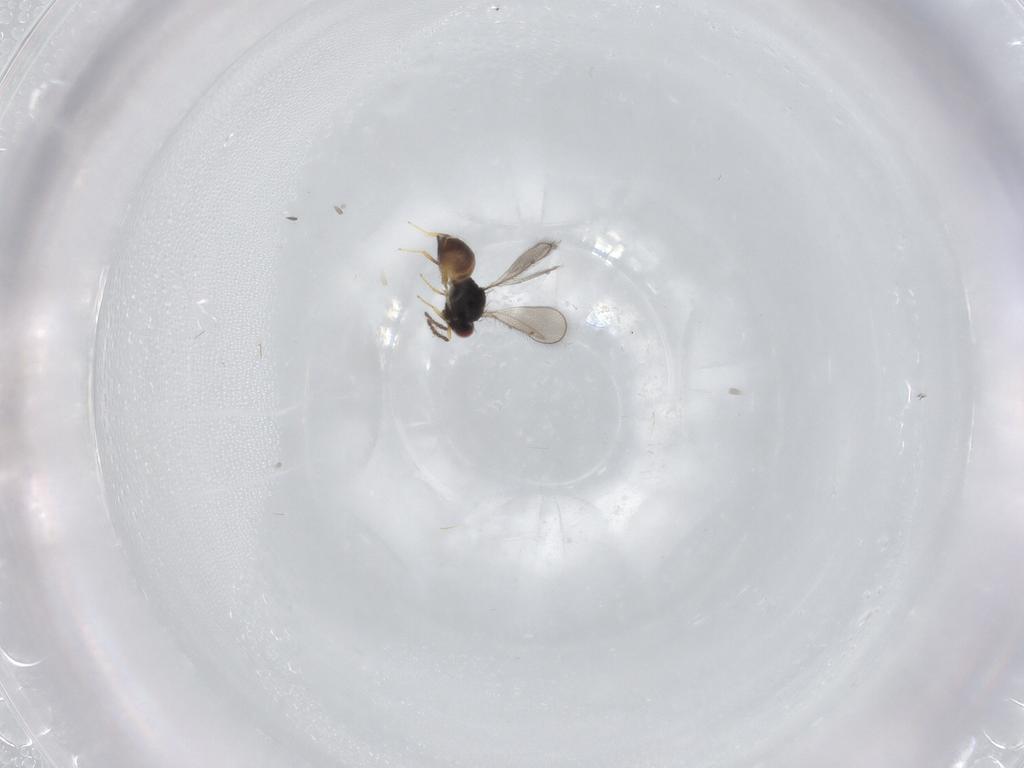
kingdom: Animalia
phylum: Arthropoda
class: Insecta
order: Hymenoptera
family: Eulophidae
